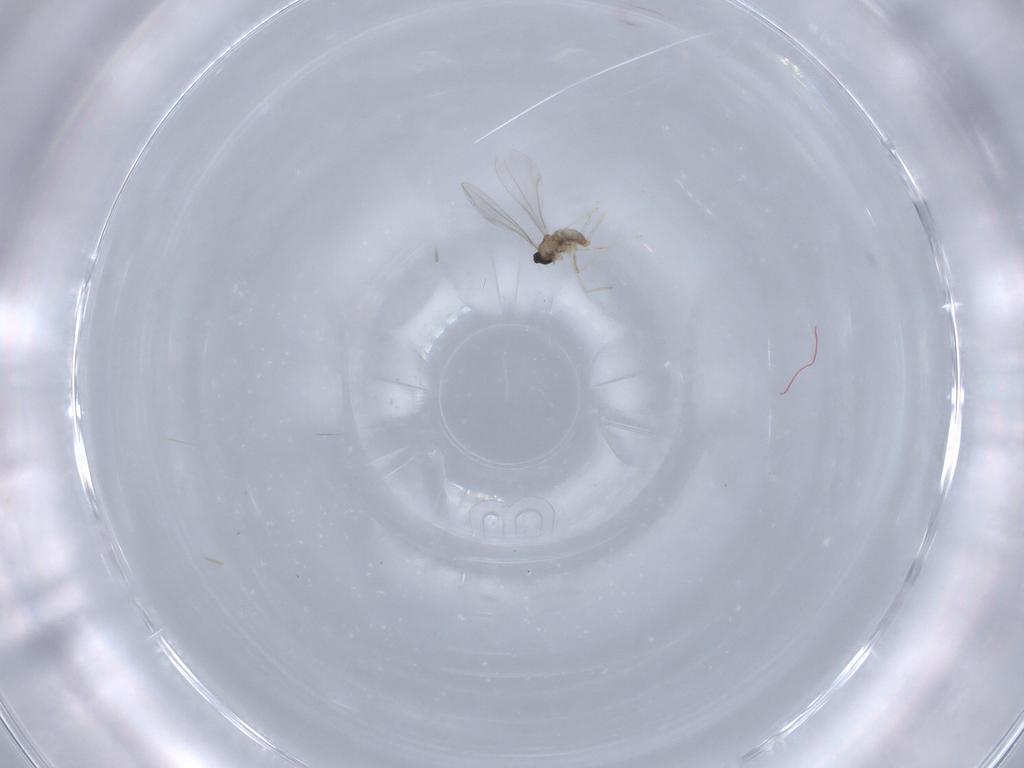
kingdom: Animalia
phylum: Arthropoda
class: Insecta
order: Diptera
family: Cecidomyiidae
